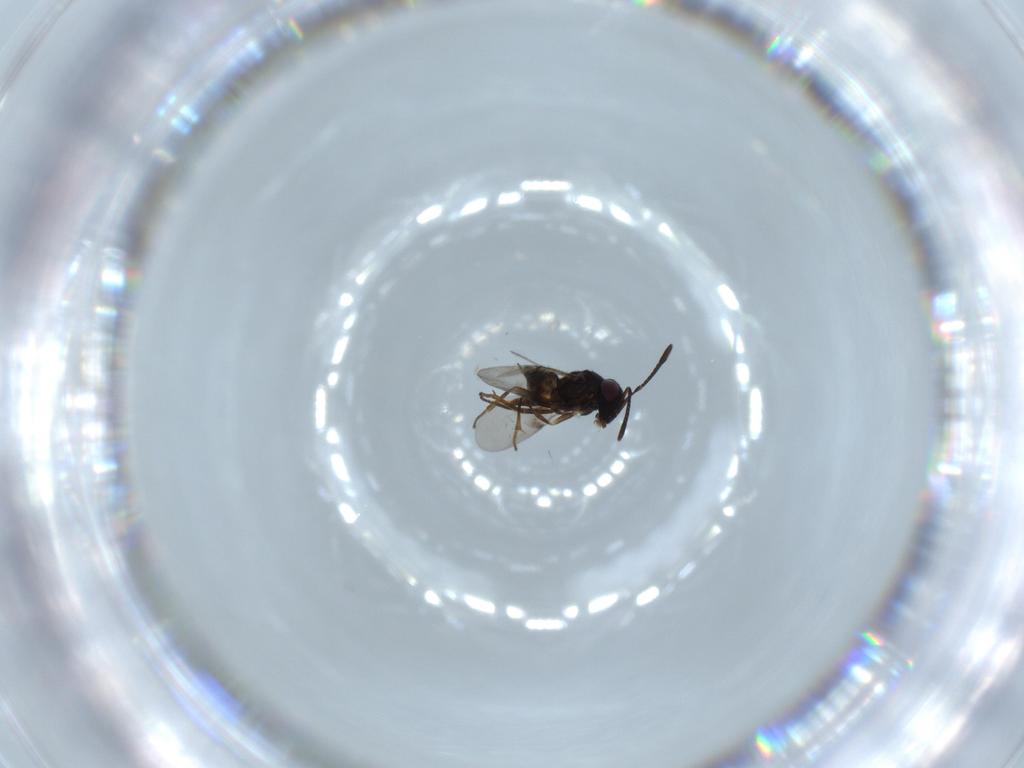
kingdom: Animalia
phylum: Arthropoda
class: Insecta
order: Hymenoptera
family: Encyrtidae
